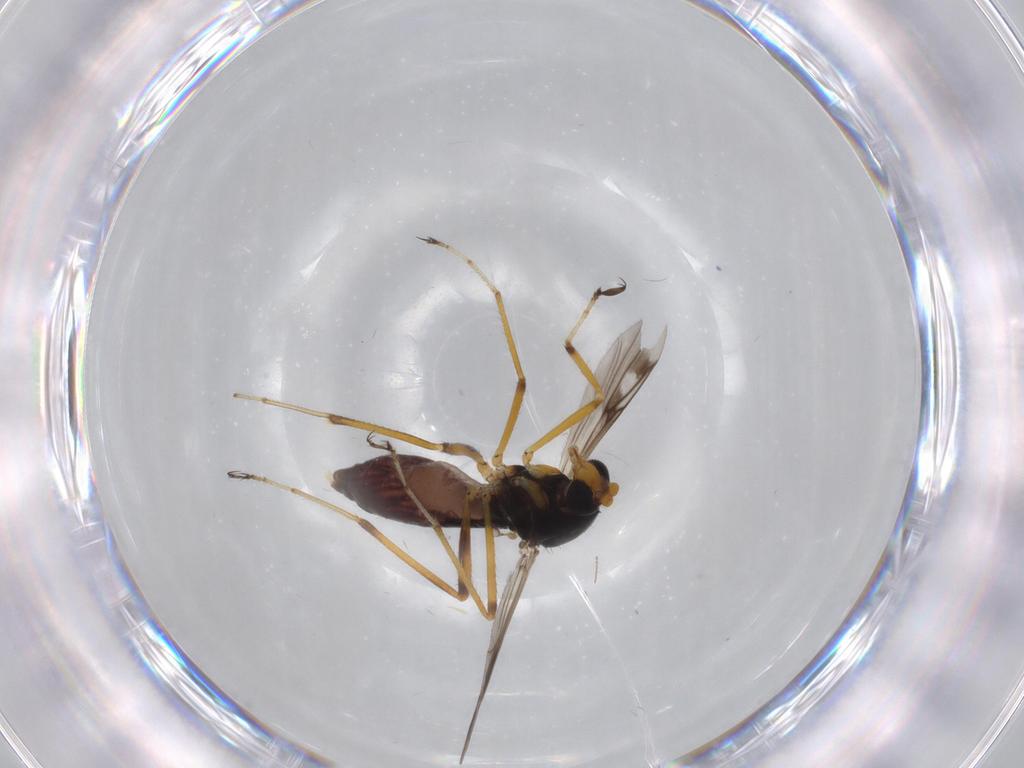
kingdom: Animalia
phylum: Arthropoda
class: Insecta
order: Diptera
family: Ceratopogonidae
